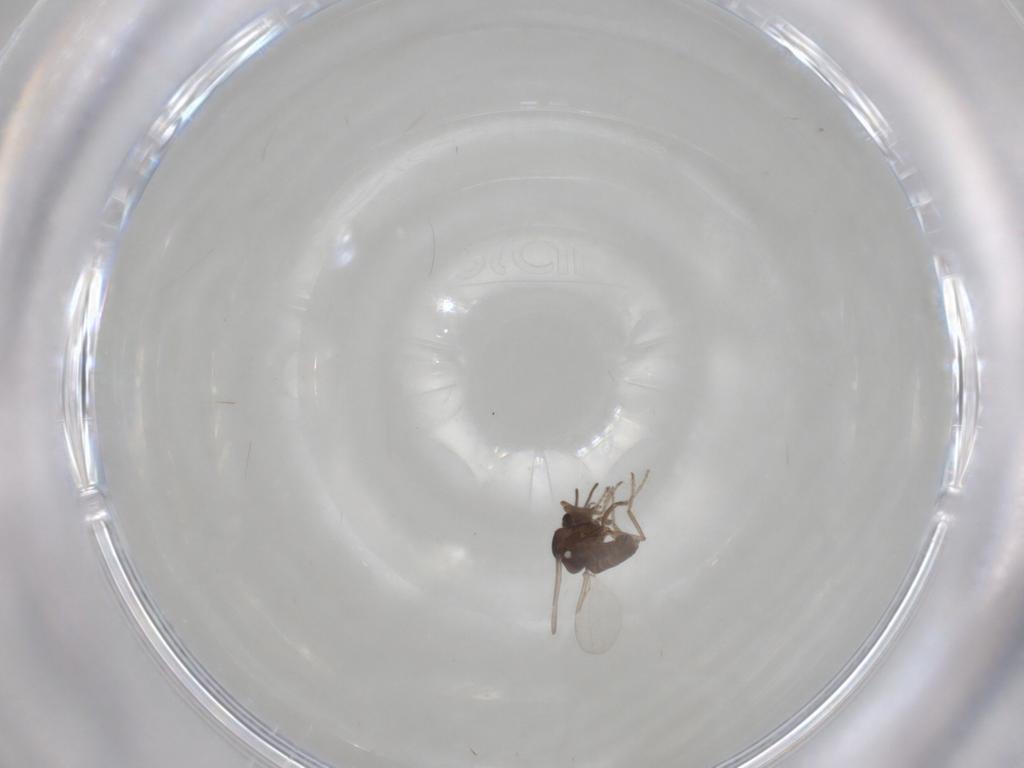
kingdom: Animalia
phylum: Arthropoda
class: Insecta
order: Diptera
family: Ceratopogonidae
